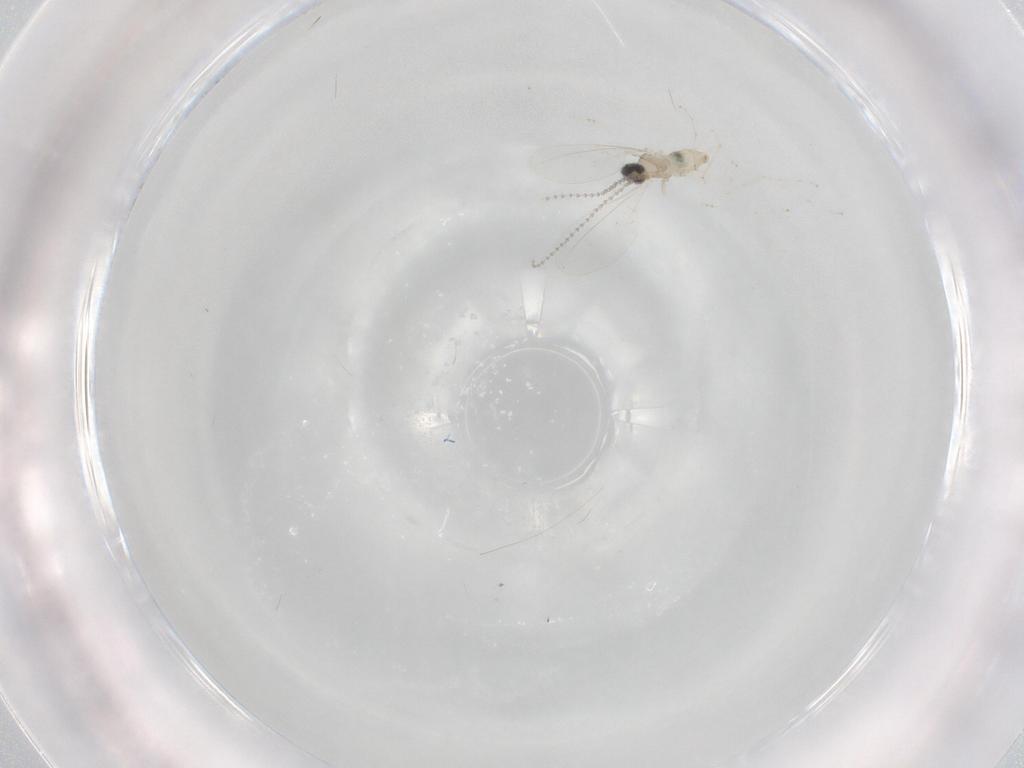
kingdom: Animalia
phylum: Arthropoda
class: Insecta
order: Diptera
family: Cecidomyiidae
